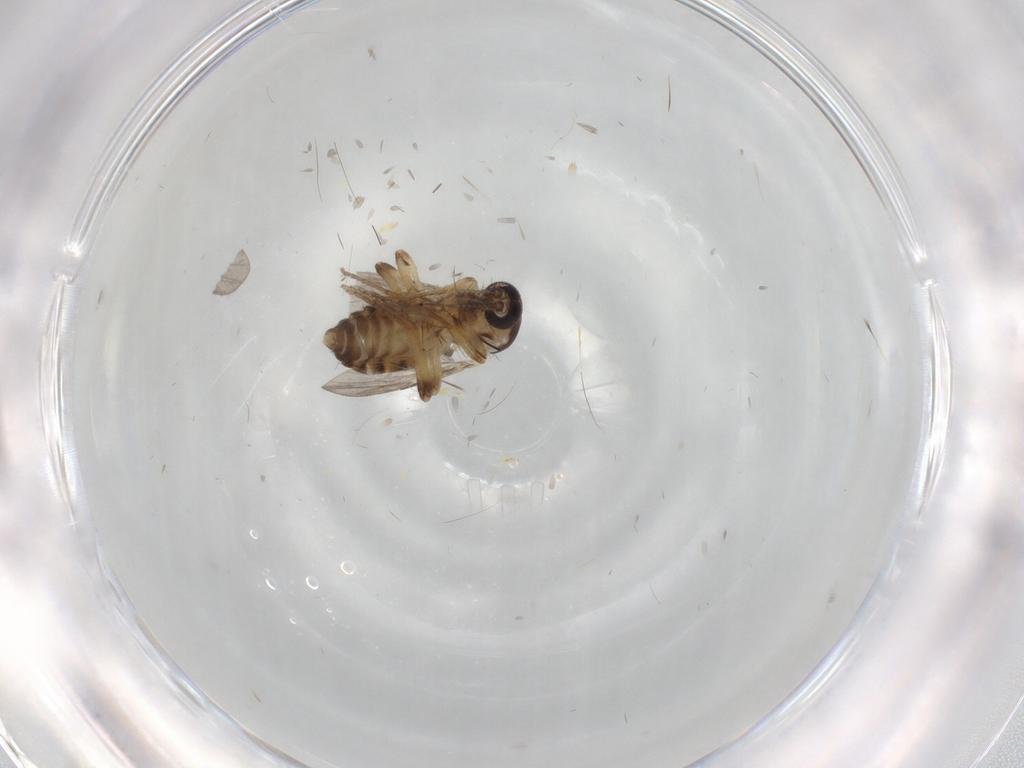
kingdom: Animalia
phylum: Arthropoda
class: Insecta
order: Diptera
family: Ceratopogonidae
